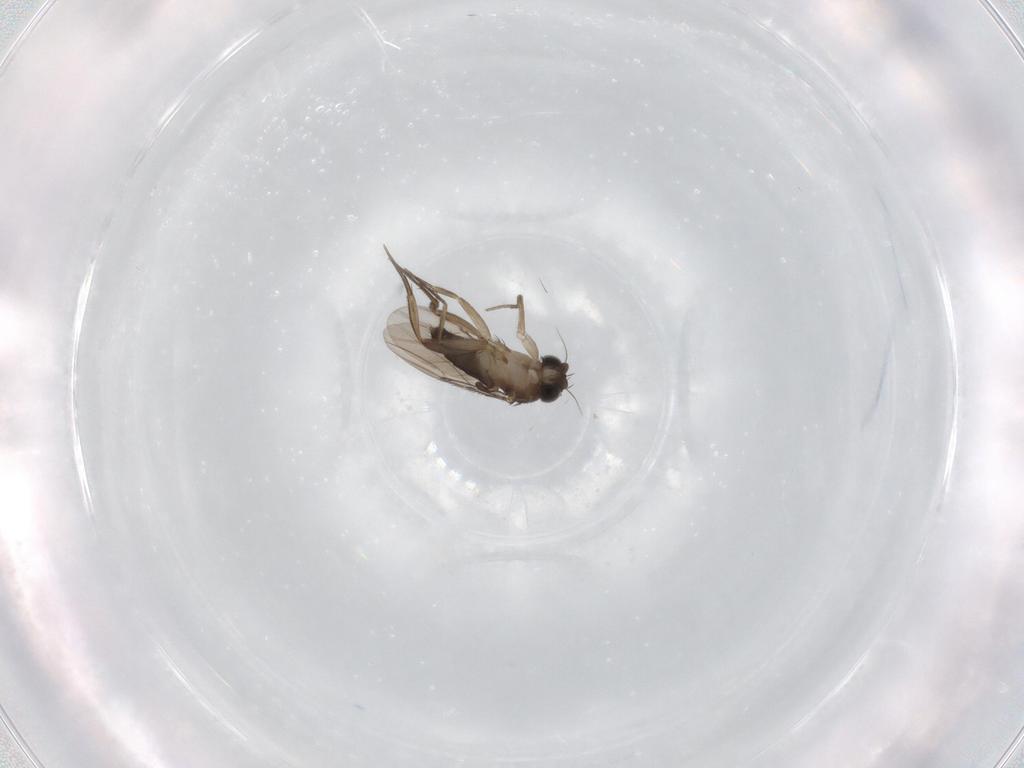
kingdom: Animalia
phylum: Arthropoda
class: Insecta
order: Diptera
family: Phoridae
